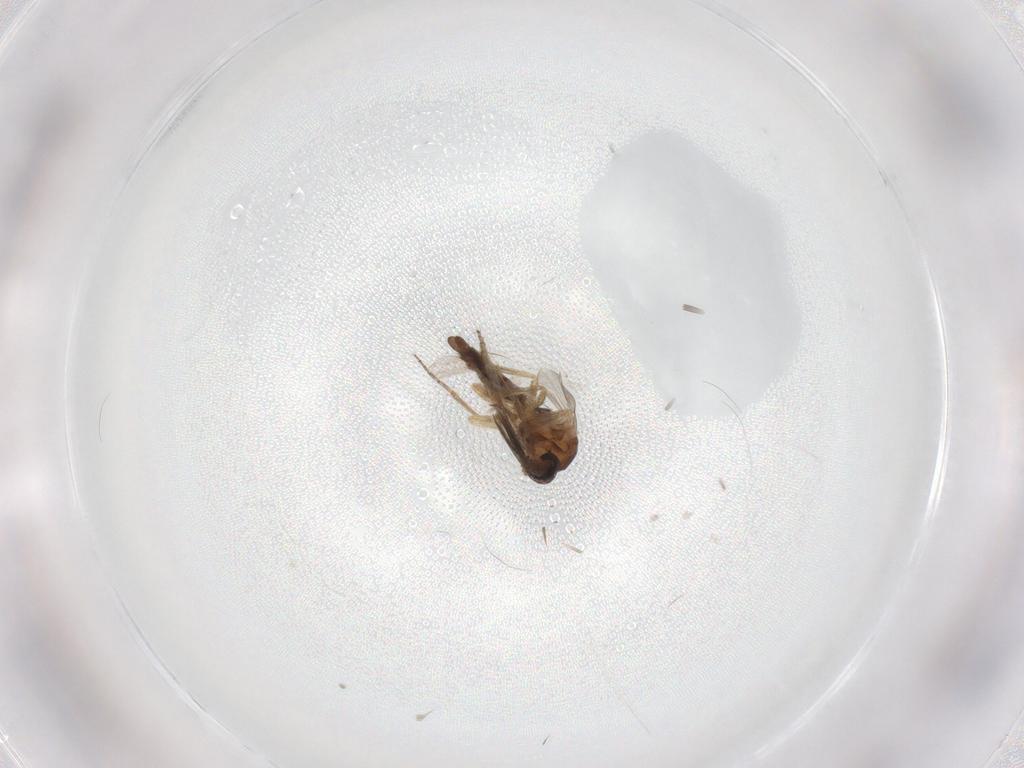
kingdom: Animalia
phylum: Arthropoda
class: Insecta
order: Diptera
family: Ceratopogonidae
